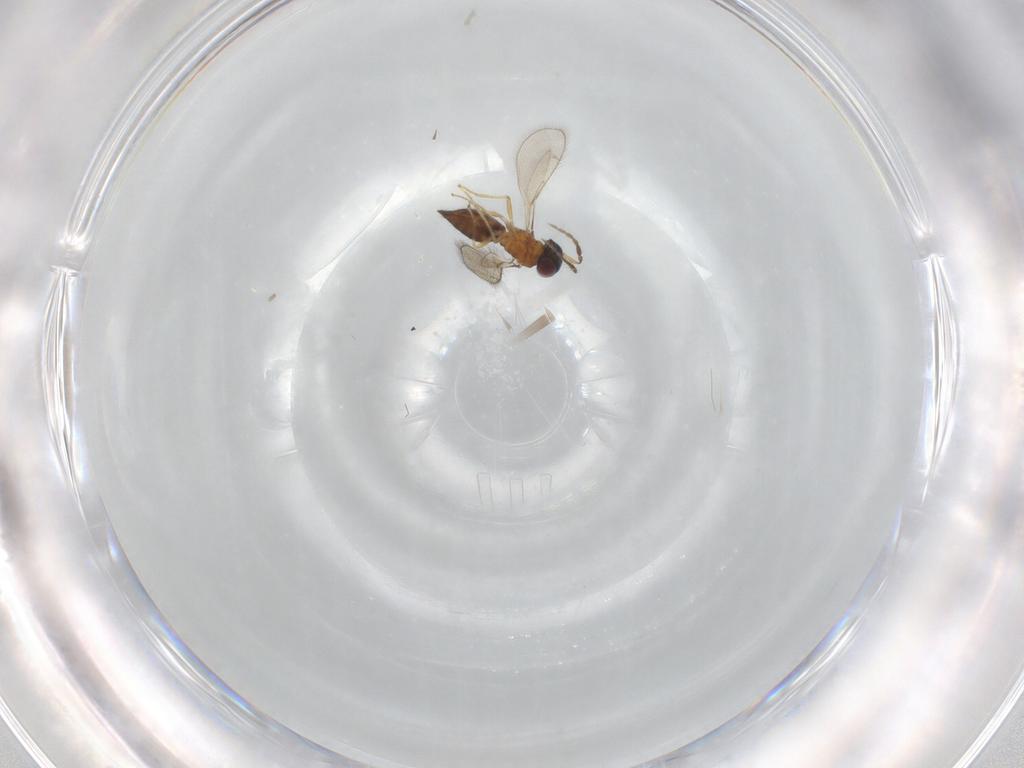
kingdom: Animalia
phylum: Arthropoda
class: Insecta
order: Hymenoptera
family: Eulophidae
